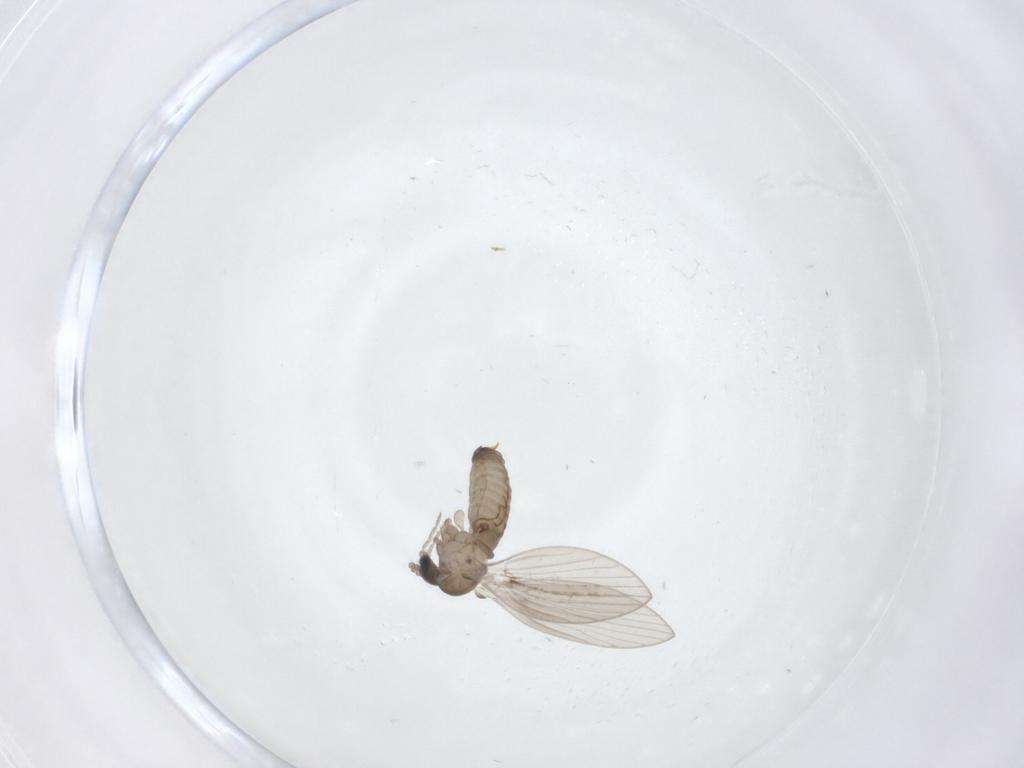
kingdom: Animalia
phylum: Arthropoda
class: Insecta
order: Diptera
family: Psychodidae
